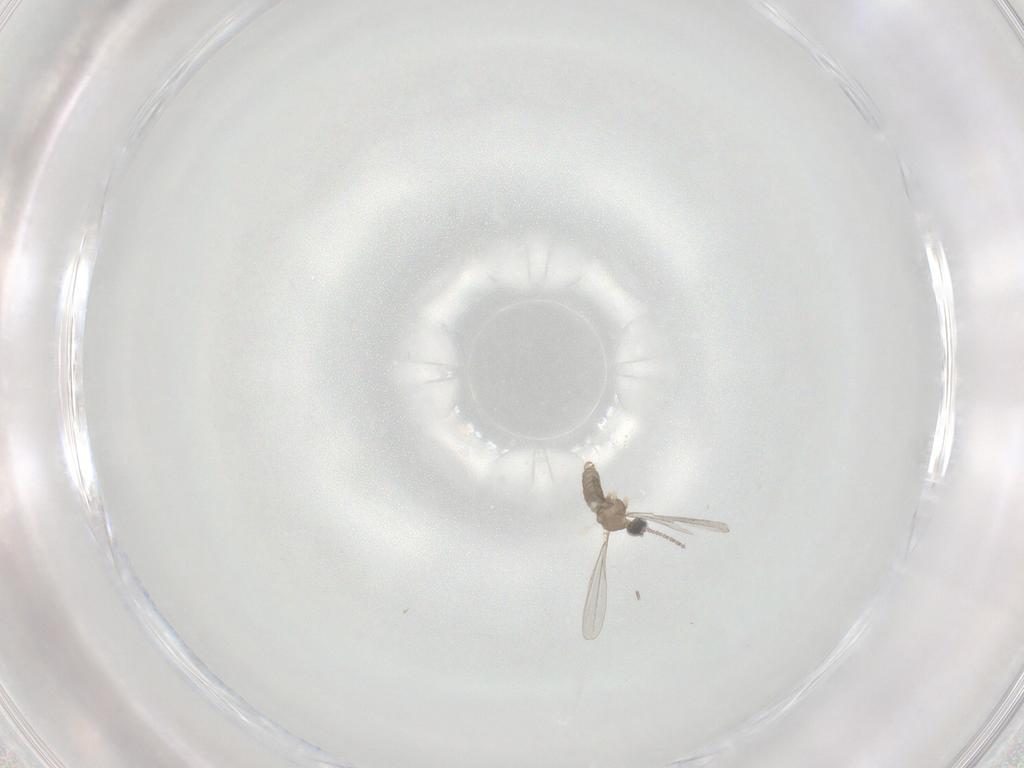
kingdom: Animalia
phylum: Arthropoda
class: Insecta
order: Diptera
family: Cecidomyiidae
